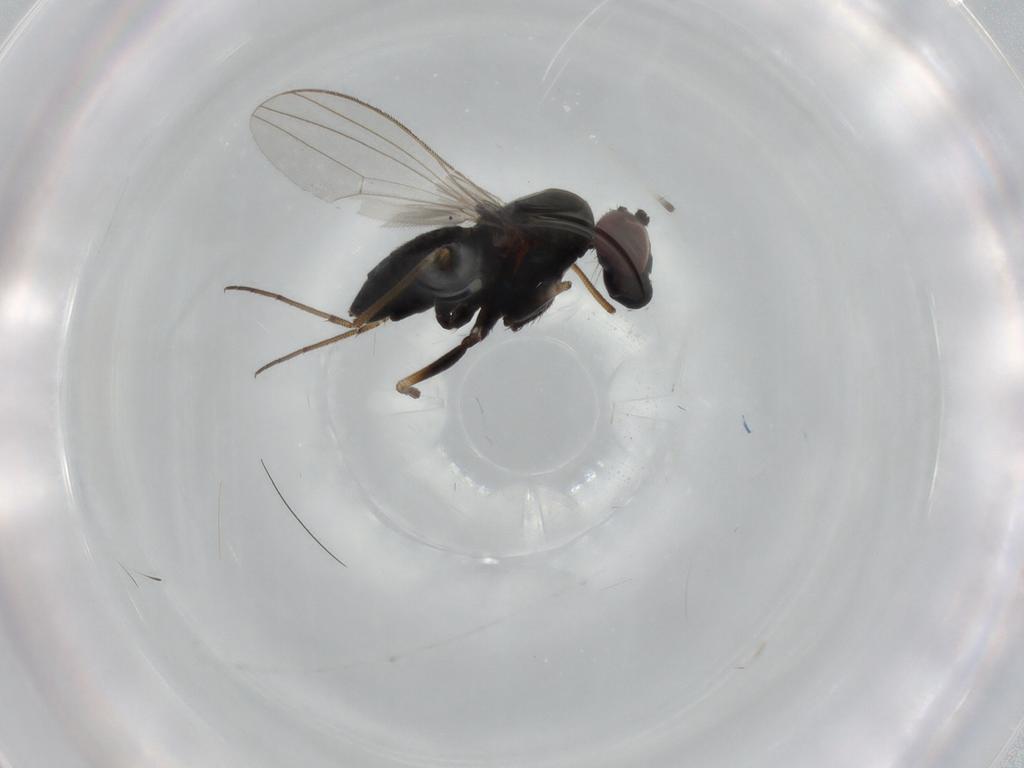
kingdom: Animalia
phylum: Arthropoda
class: Insecta
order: Diptera
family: Dolichopodidae
